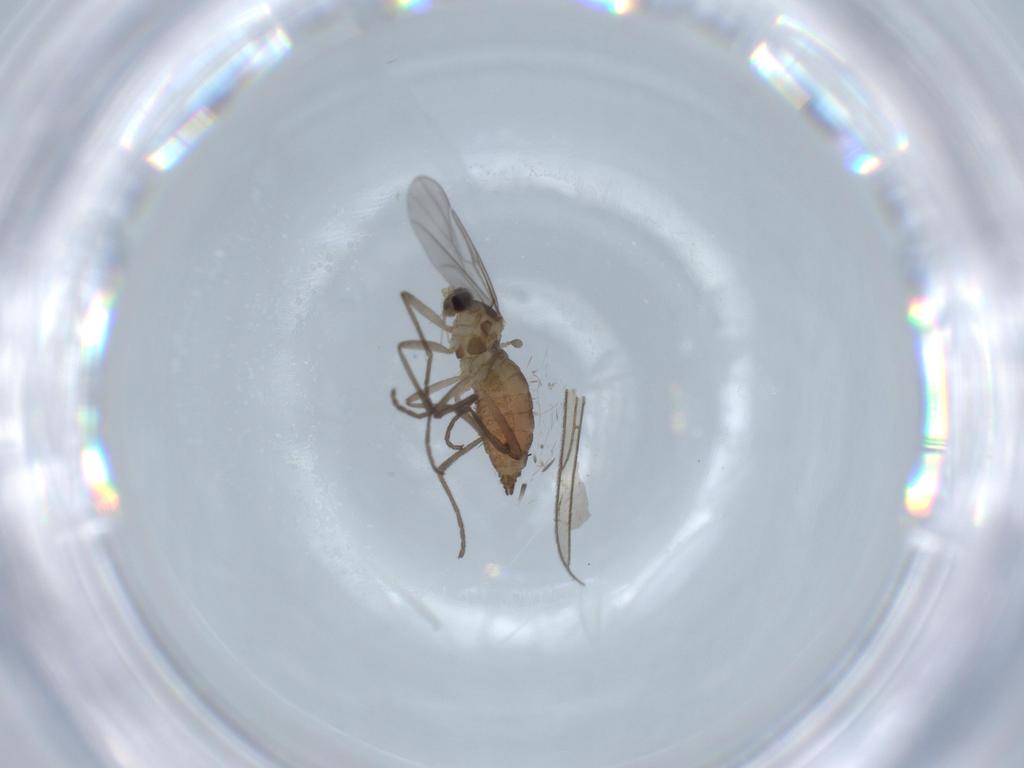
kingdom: Animalia
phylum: Arthropoda
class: Insecta
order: Diptera
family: Cecidomyiidae
